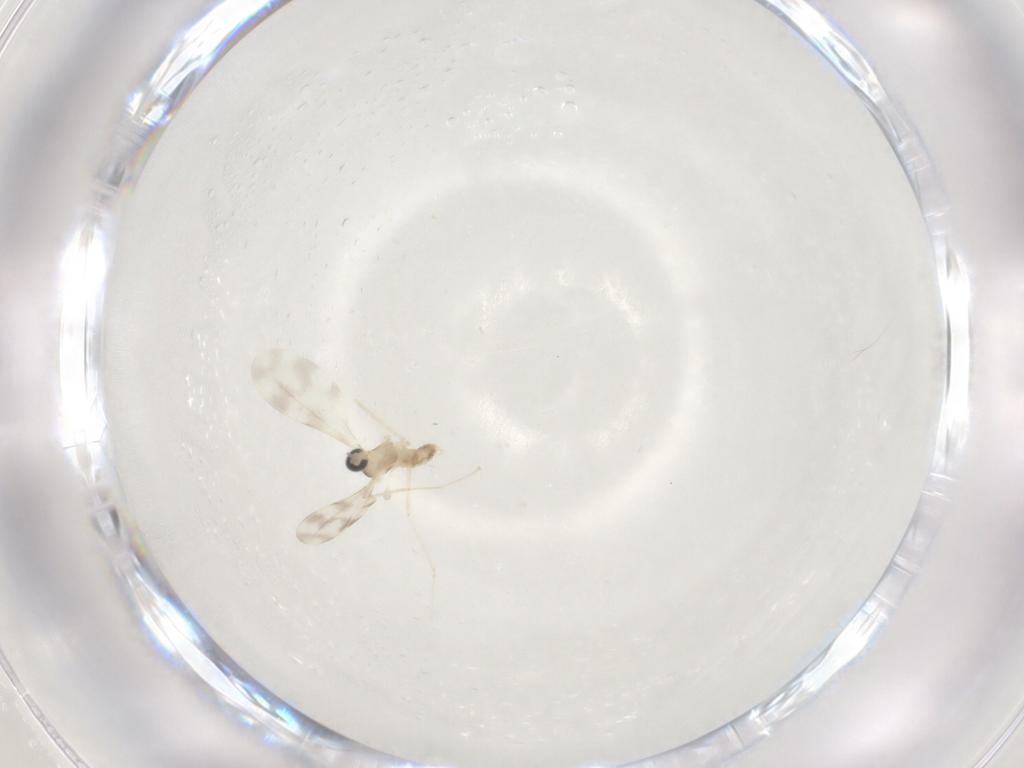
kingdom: Animalia
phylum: Arthropoda
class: Insecta
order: Diptera
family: Cecidomyiidae
